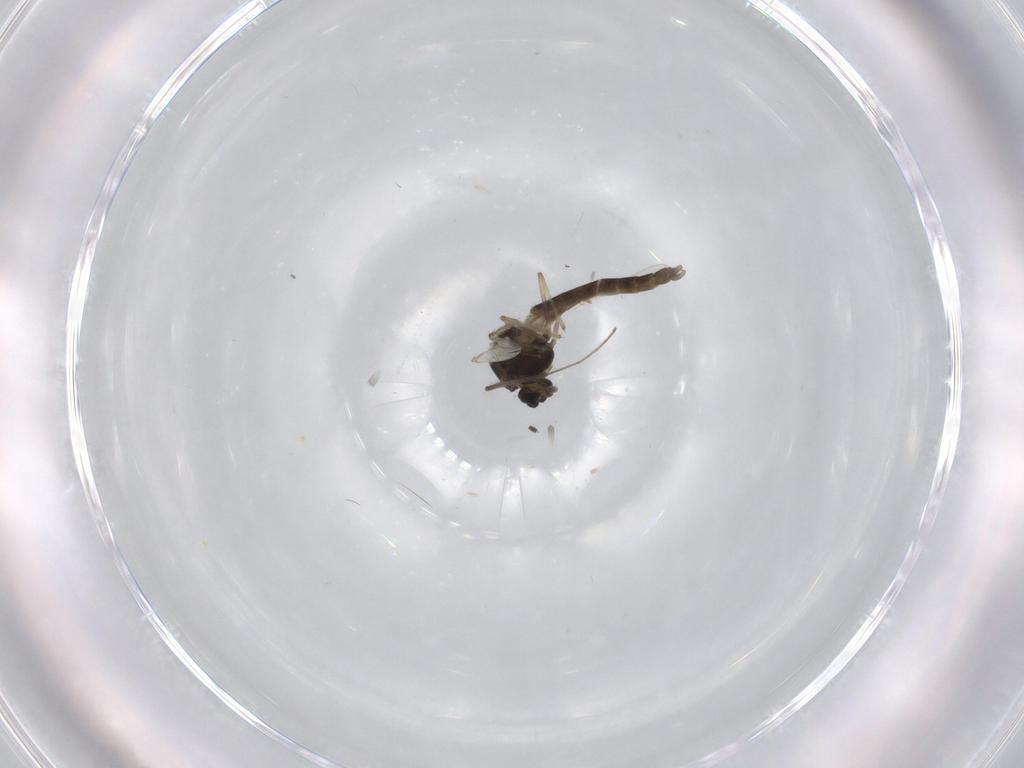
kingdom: Animalia
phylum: Arthropoda
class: Insecta
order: Diptera
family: Chironomidae
